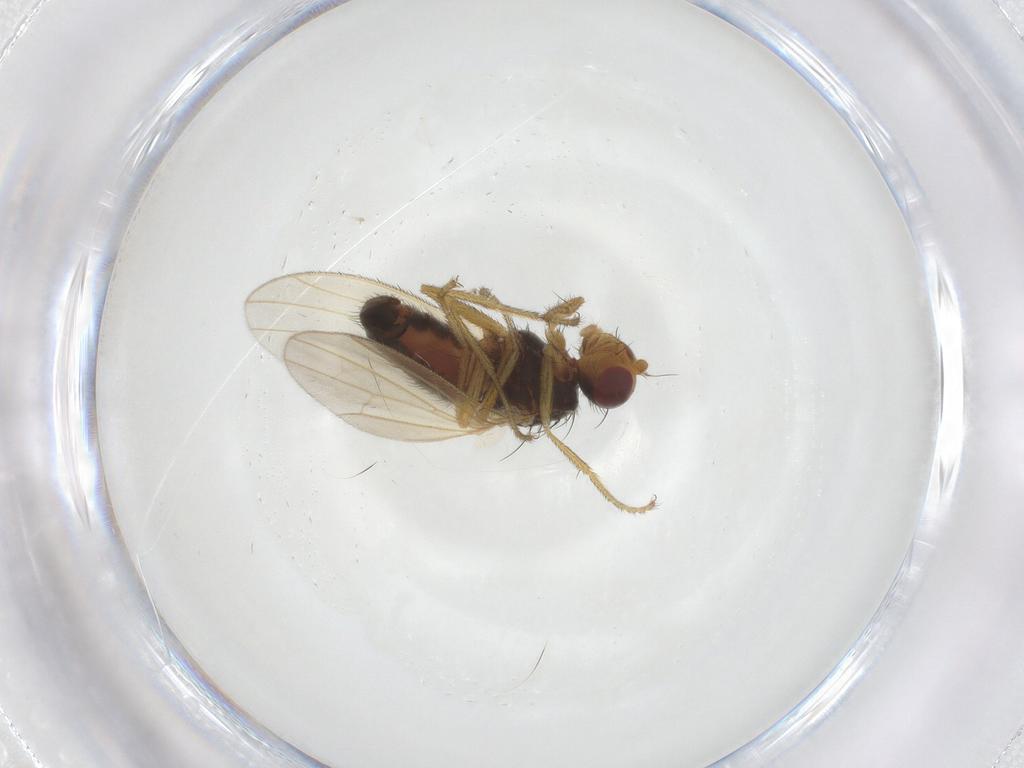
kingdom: Animalia
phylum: Arthropoda
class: Insecta
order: Diptera
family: Heleomyzidae
